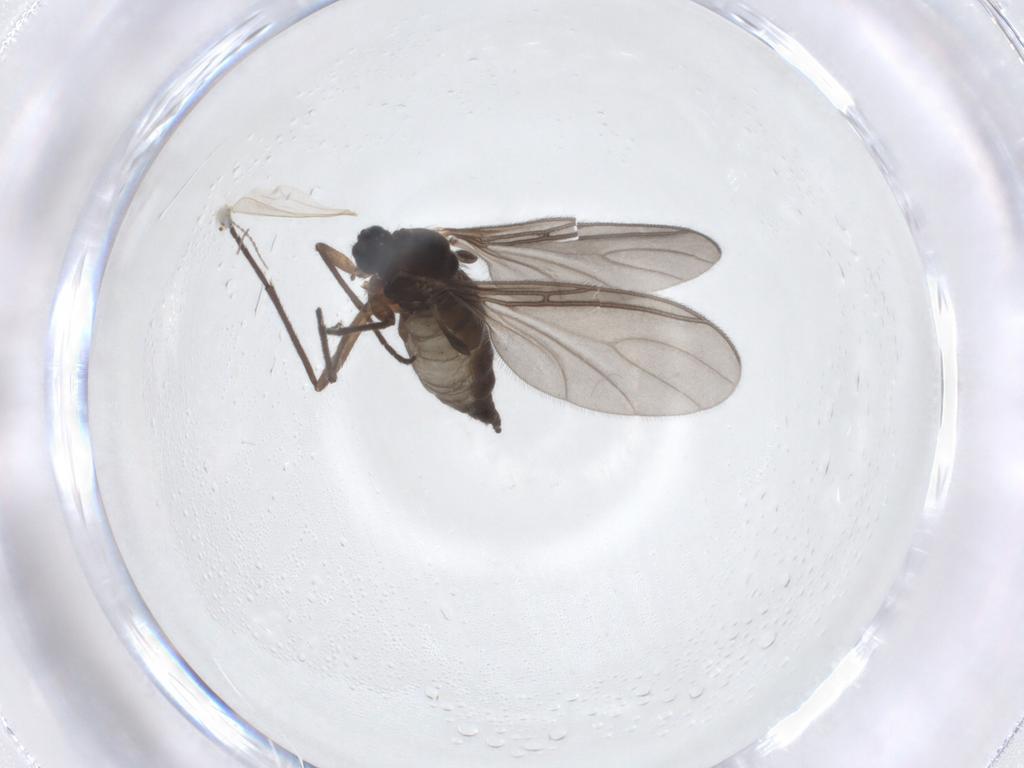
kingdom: Animalia
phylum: Arthropoda
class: Insecta
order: Diptera
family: Sciaridae
